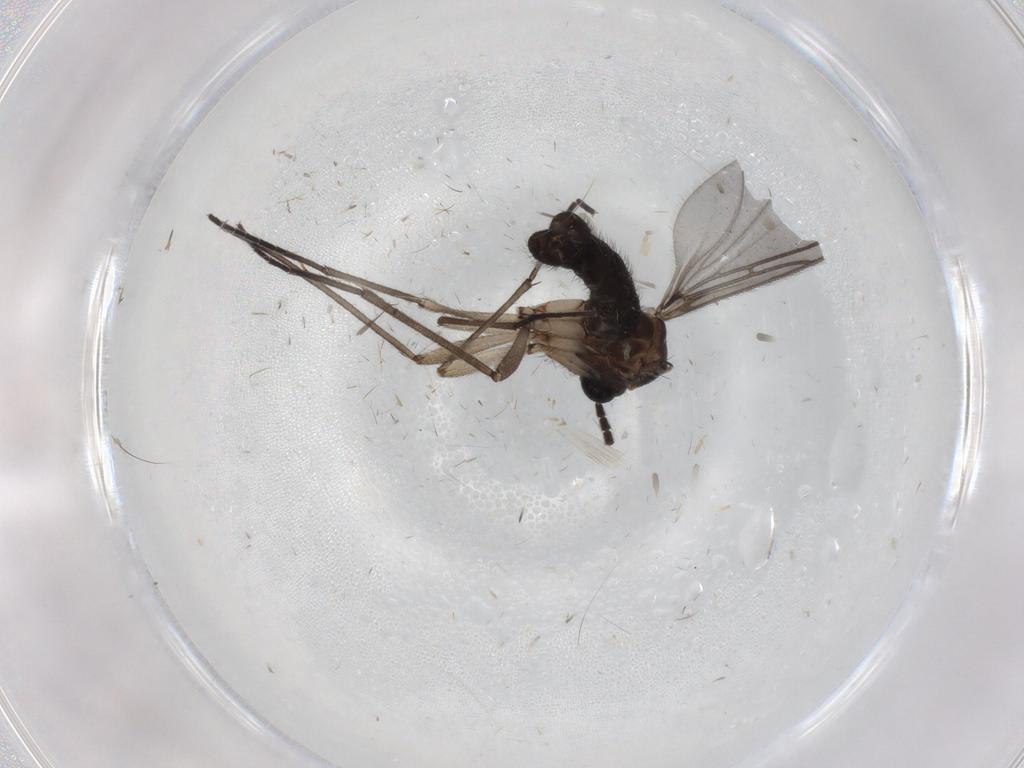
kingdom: Animalia
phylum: Arthropoda
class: Insecta
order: Diptera
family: Sciaridae
